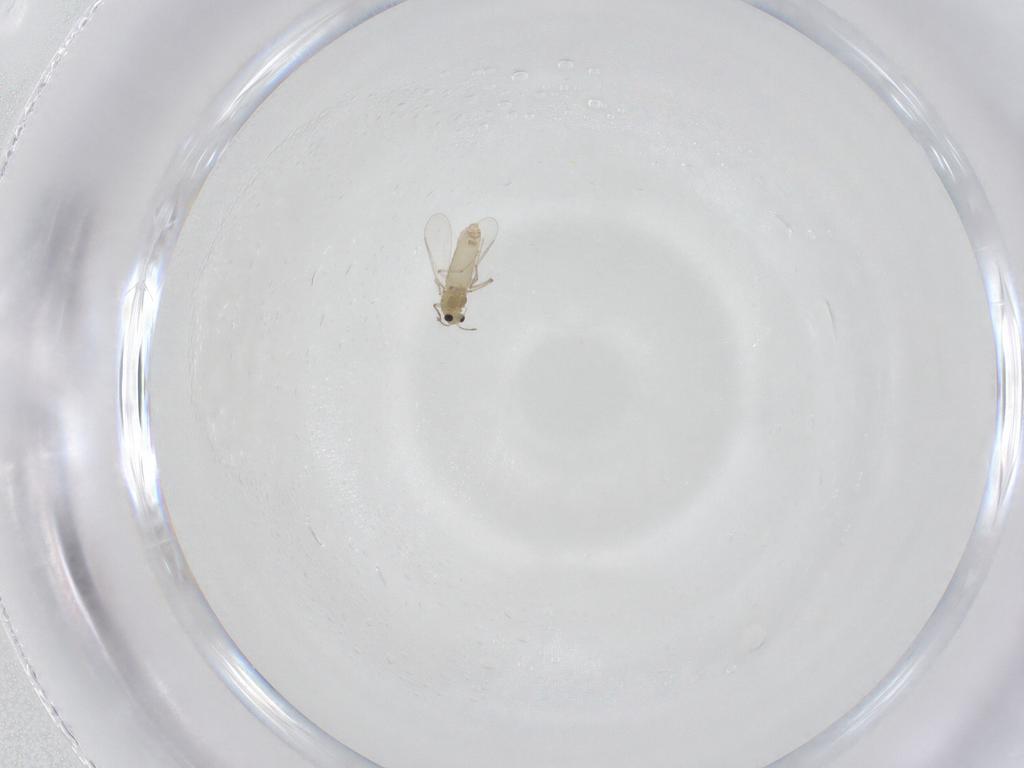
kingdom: Animalia
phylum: Arthropoda
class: Insecta
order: Diptera
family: Chironomidae
